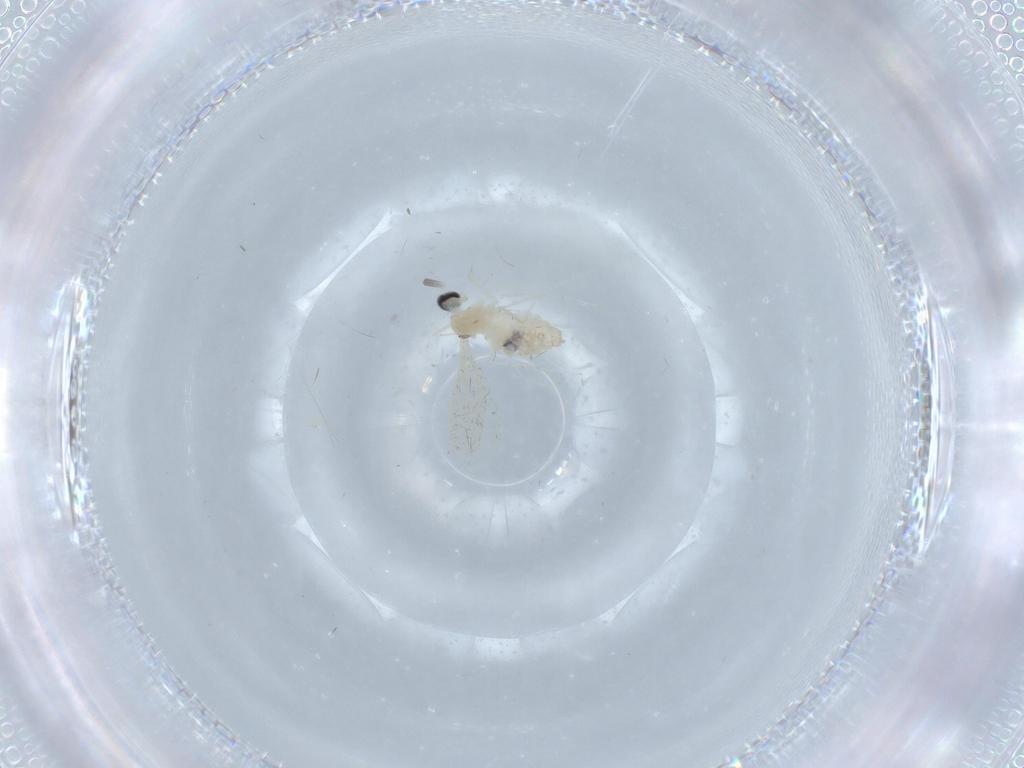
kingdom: Animalia
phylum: Arthropoda
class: Insecta
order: Diptera
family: Cecidomyiidae
